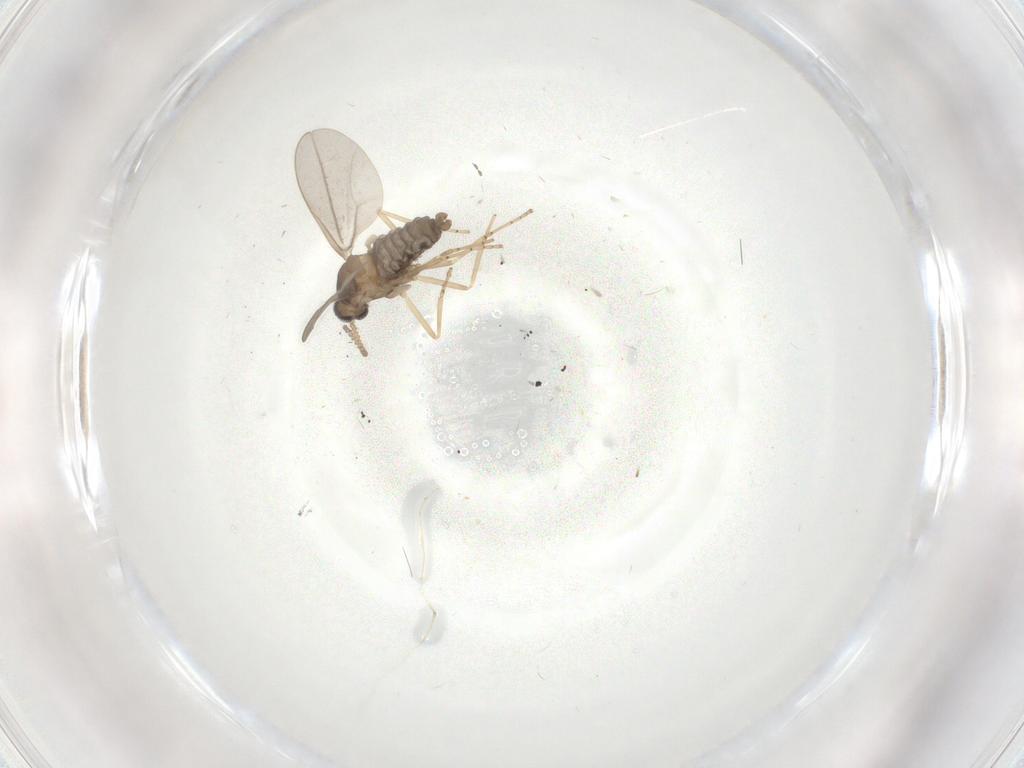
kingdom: Animalia
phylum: Arthropoda
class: Insecta
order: Diptera
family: Cecidomyiidae
